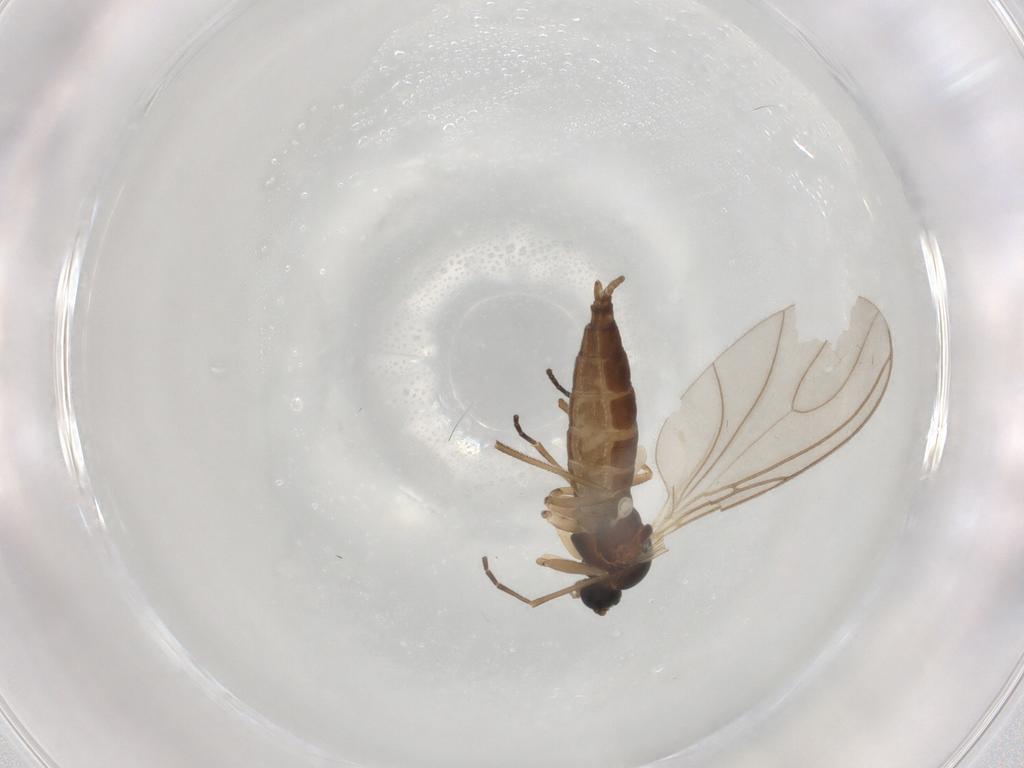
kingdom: Animalia
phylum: Arthropoda
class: Insecta
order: Diptera
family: Sciaridae
